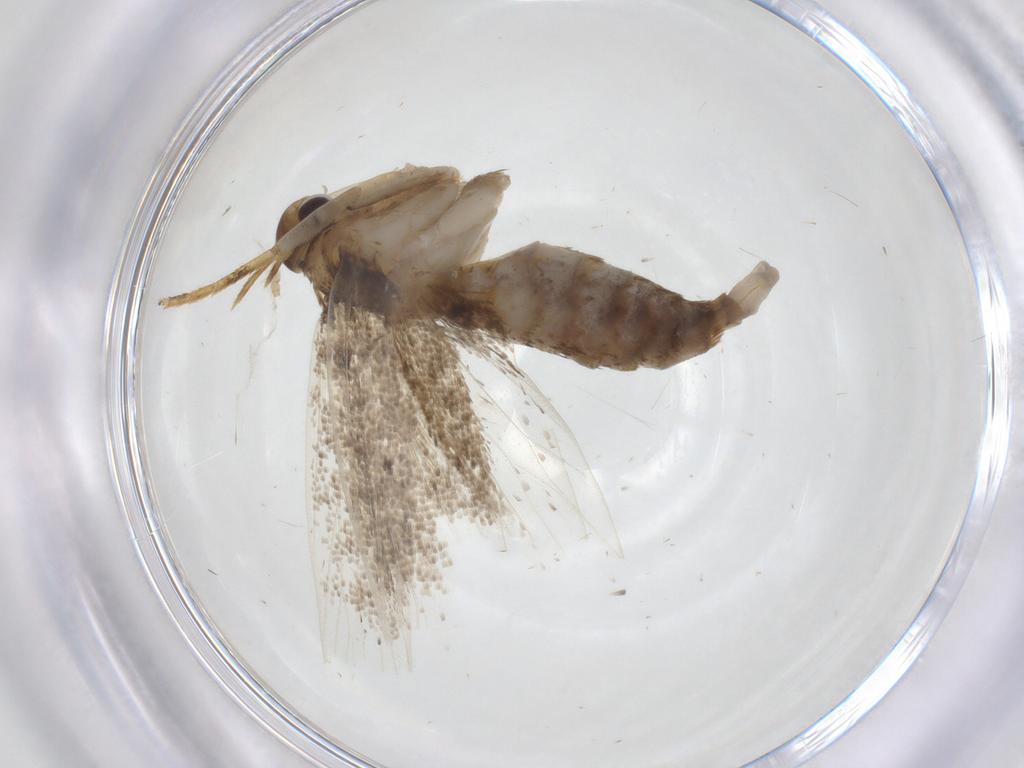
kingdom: Animalia
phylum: Arthropoda
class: Insecta
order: Lepidoptera
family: Lecithoceridae
